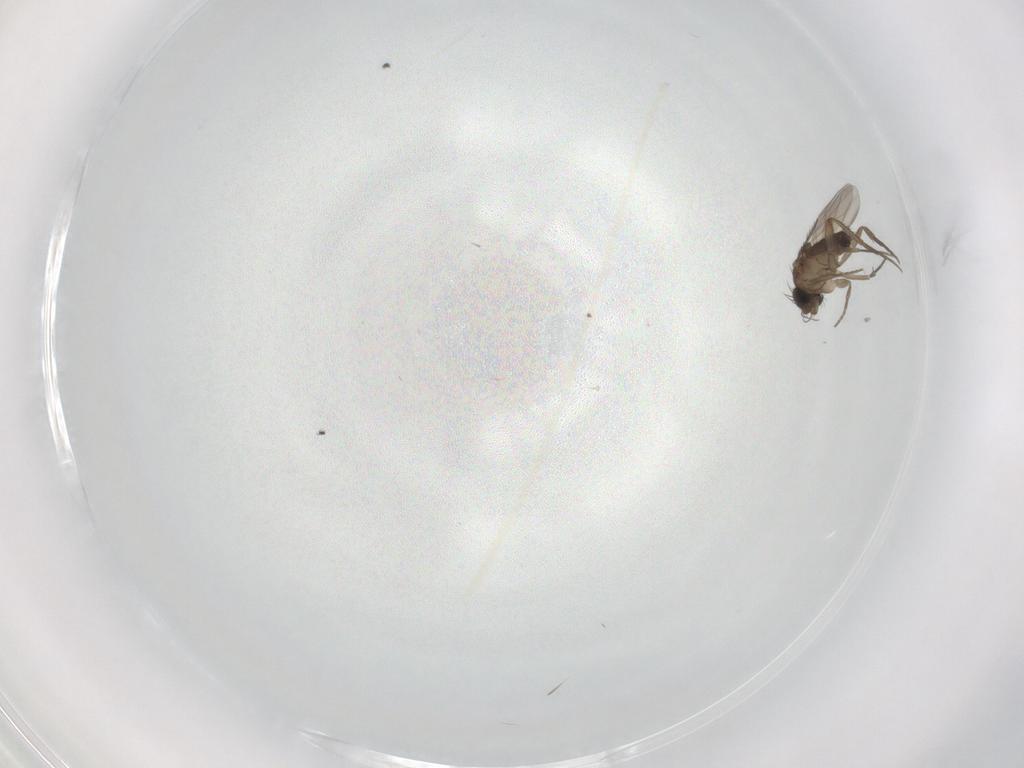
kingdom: Animalia
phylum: Arthropoda
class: Insecta
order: Diptera
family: Phoridae
